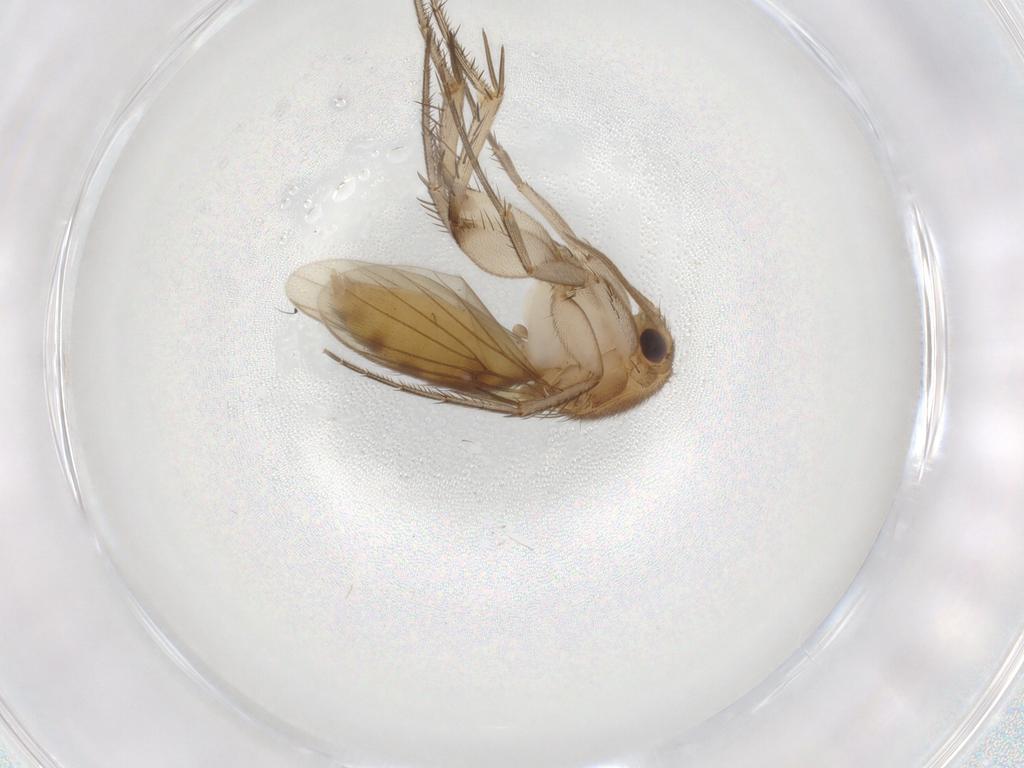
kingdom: Animalia
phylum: Arthropoda
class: Insecta
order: Diptera
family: Mycetophilidae
